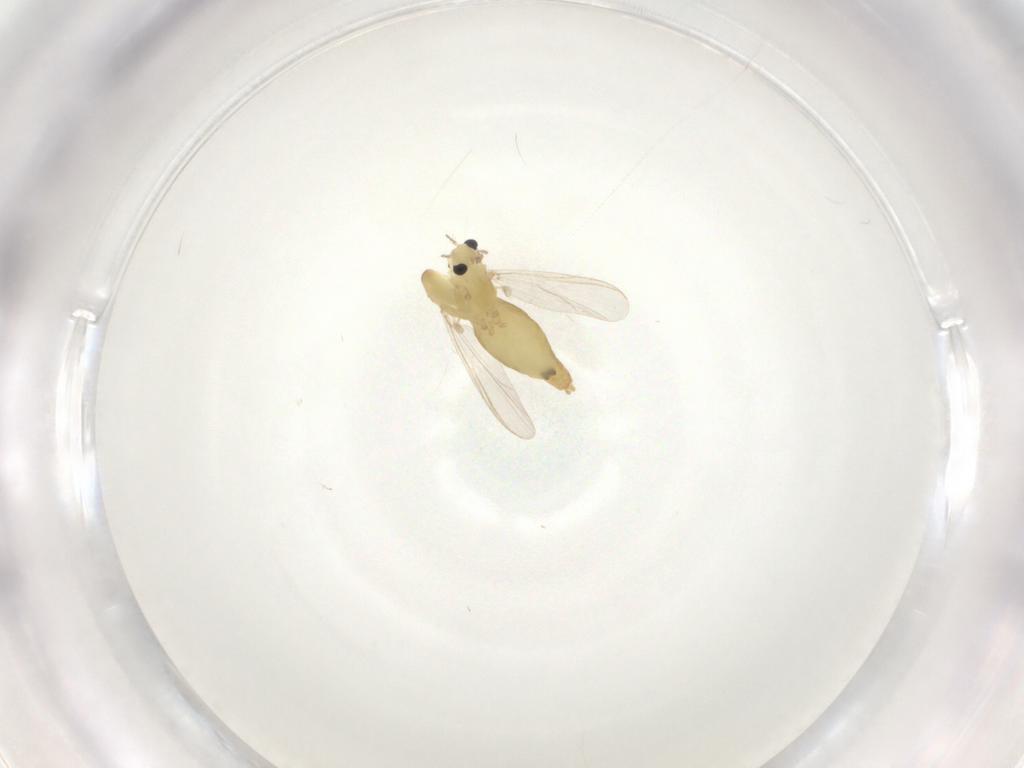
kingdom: Animalia
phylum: Arthropoda
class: Insecta
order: Diptera
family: Chironomidae
